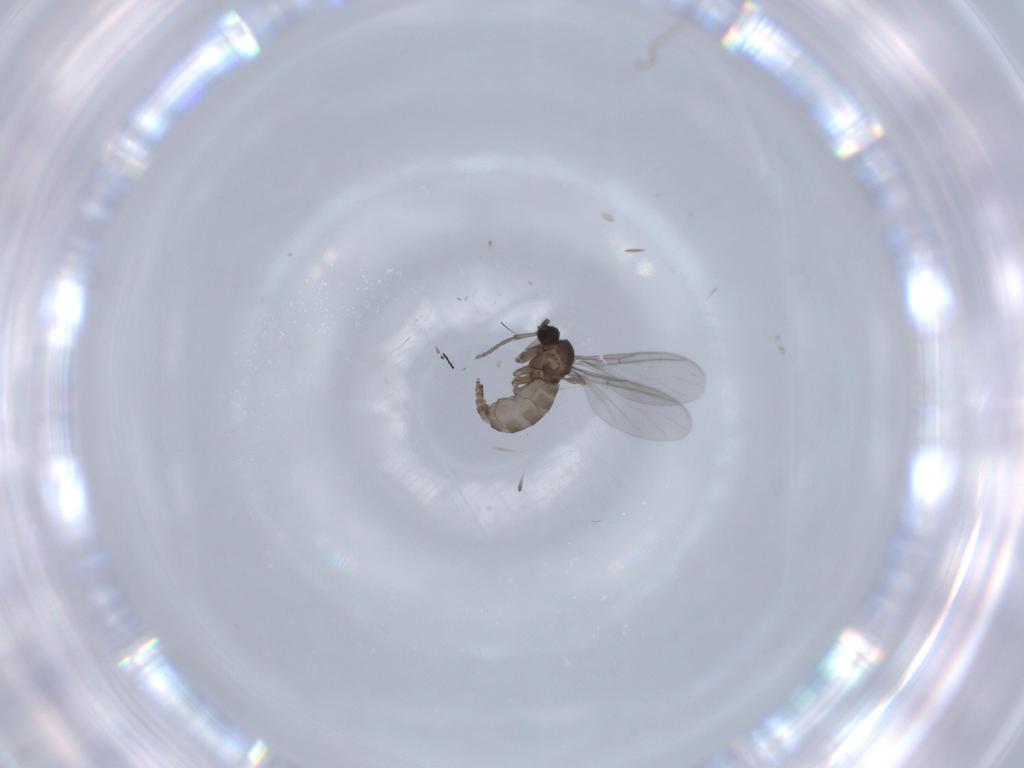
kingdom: Animalia
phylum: Arthropoda
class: Insecta
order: Diptera
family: Sciaridae
